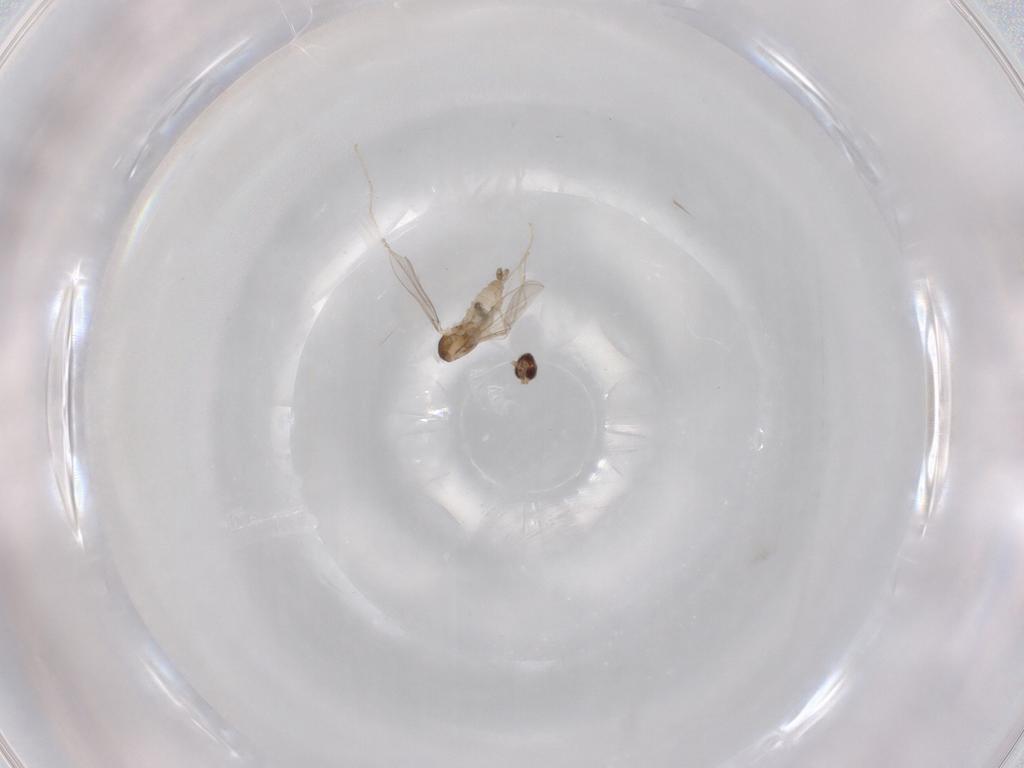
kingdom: Animalia
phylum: Arthropoda
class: Insecta
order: Diptera
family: Cecidomyiidae
